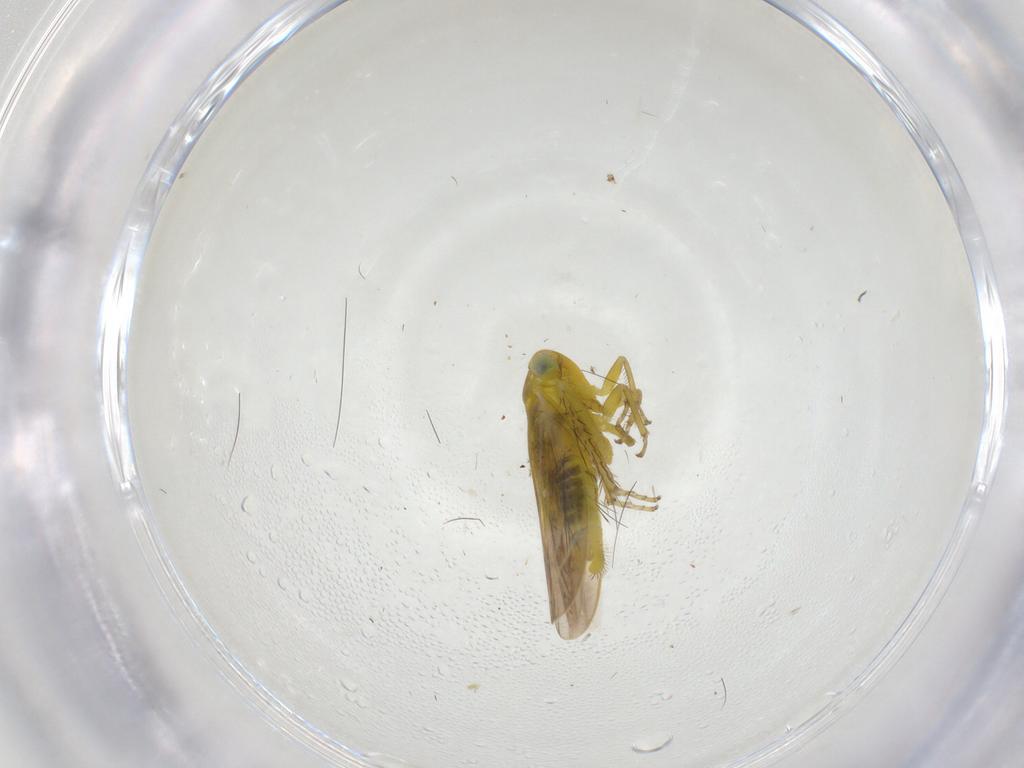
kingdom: Animalia
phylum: Arthropoda
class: Insecta
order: Hemiptera
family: Cicadellidae
